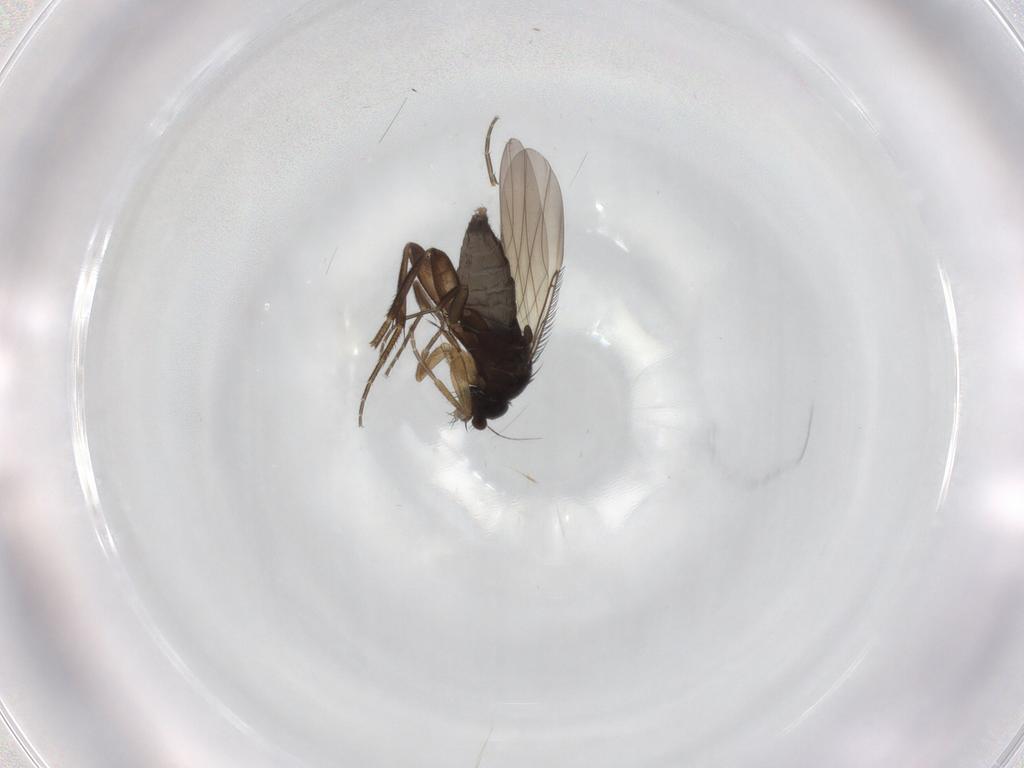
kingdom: Animalia
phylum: Arthropoda
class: Insecta
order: Diptera
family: Phoridae
